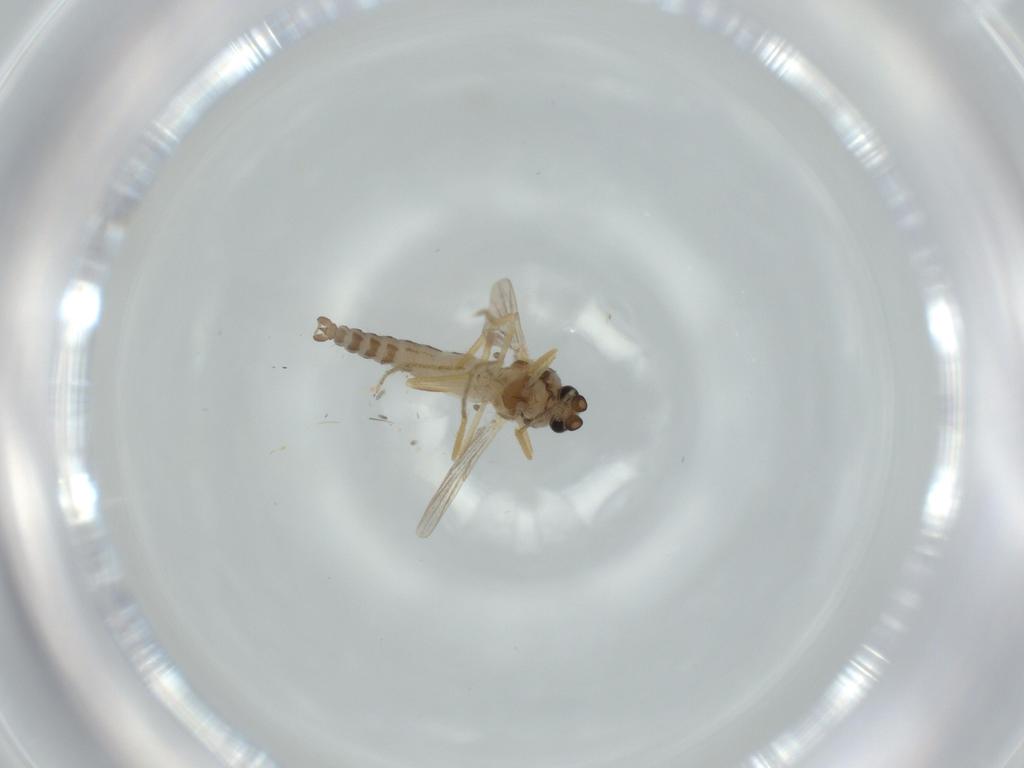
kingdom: Animalia
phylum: Arthropoda
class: Insecta
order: Diptera
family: Ceratopogonidae
